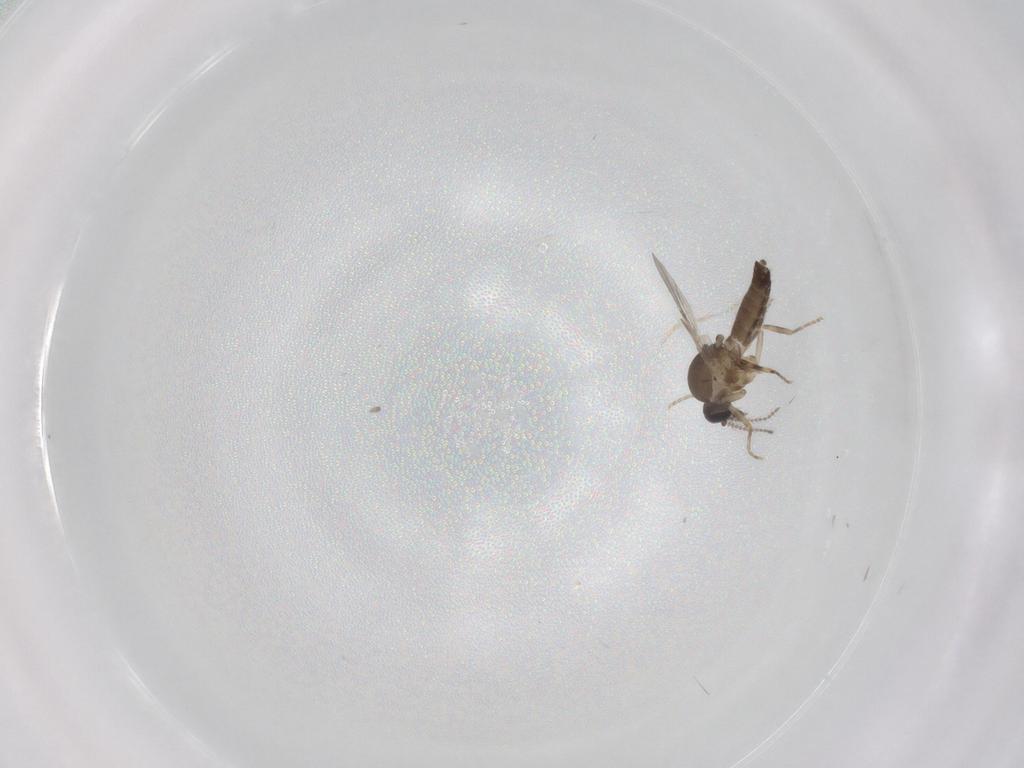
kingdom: Animalia
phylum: Arthropoda
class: Insecta
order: Diptera
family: Ceratopogonidae
